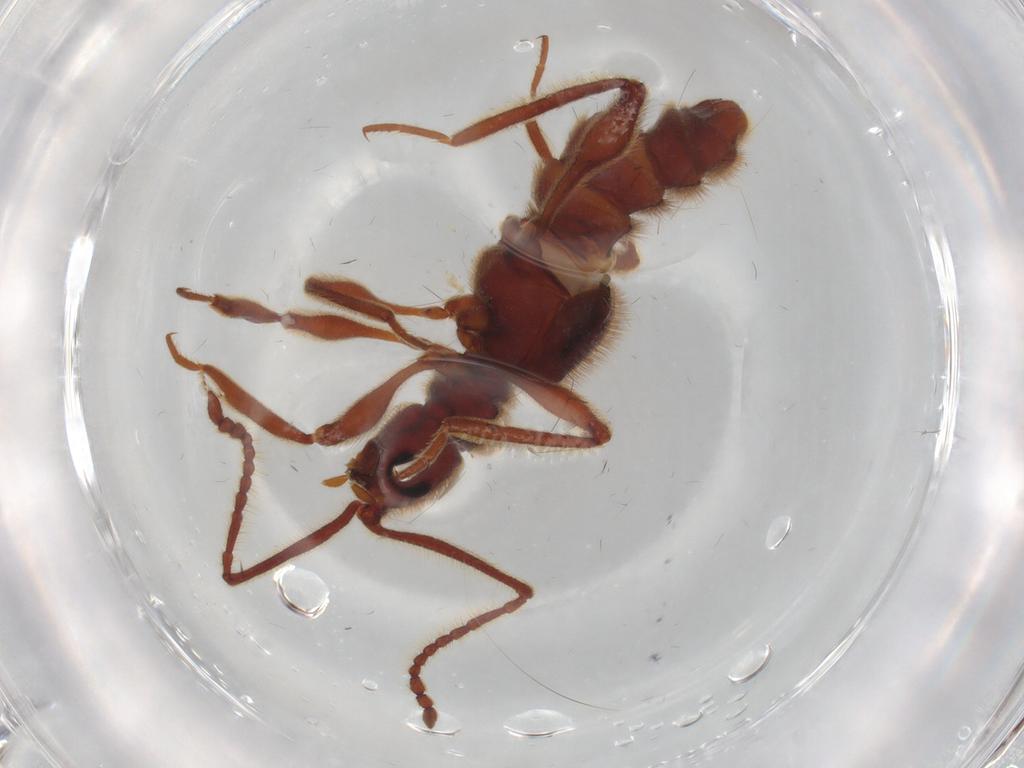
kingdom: Animalia
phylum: Arthropoda
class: Insecta
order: Coleoptera
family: Staphylinidae
